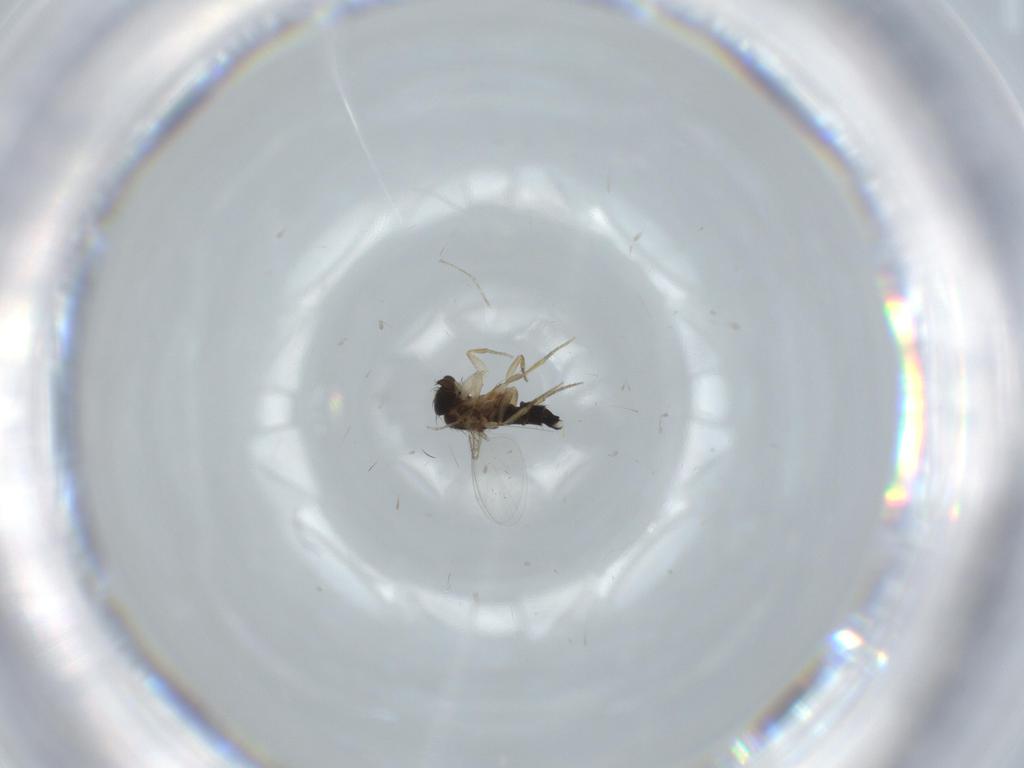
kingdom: Animalia
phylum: Arthropoda
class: Insecta
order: Diptera
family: Cecidomyiidae
